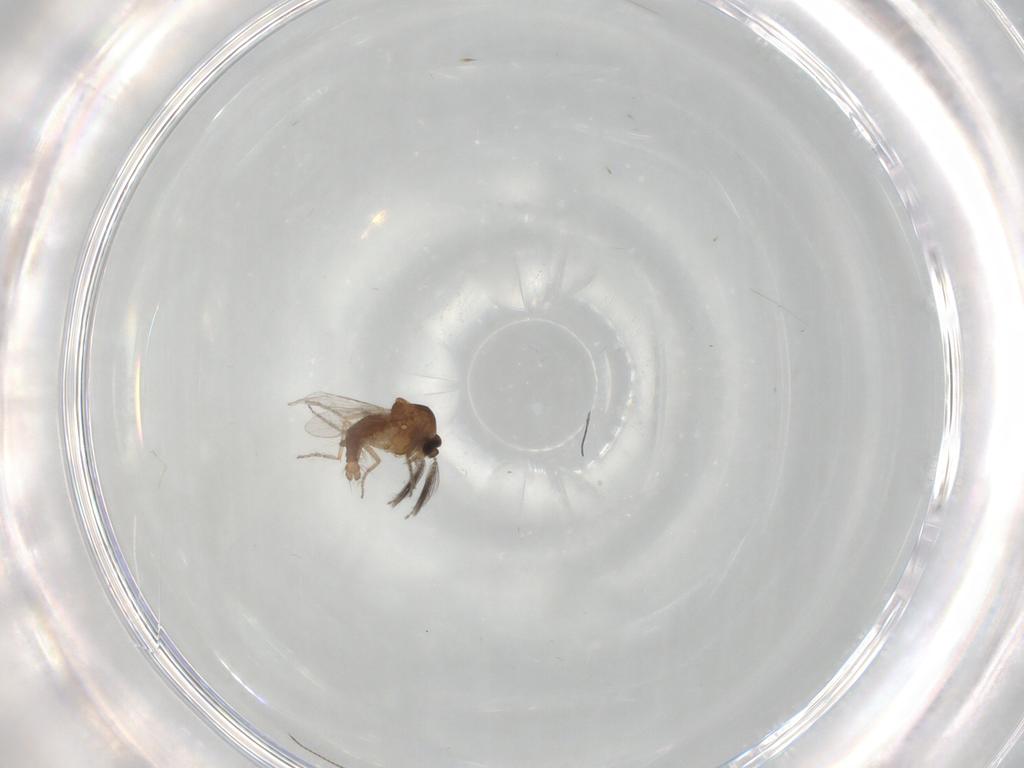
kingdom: Animalia
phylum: Arthropoda
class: Insecta
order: Diptera
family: Ceratopogonidae
